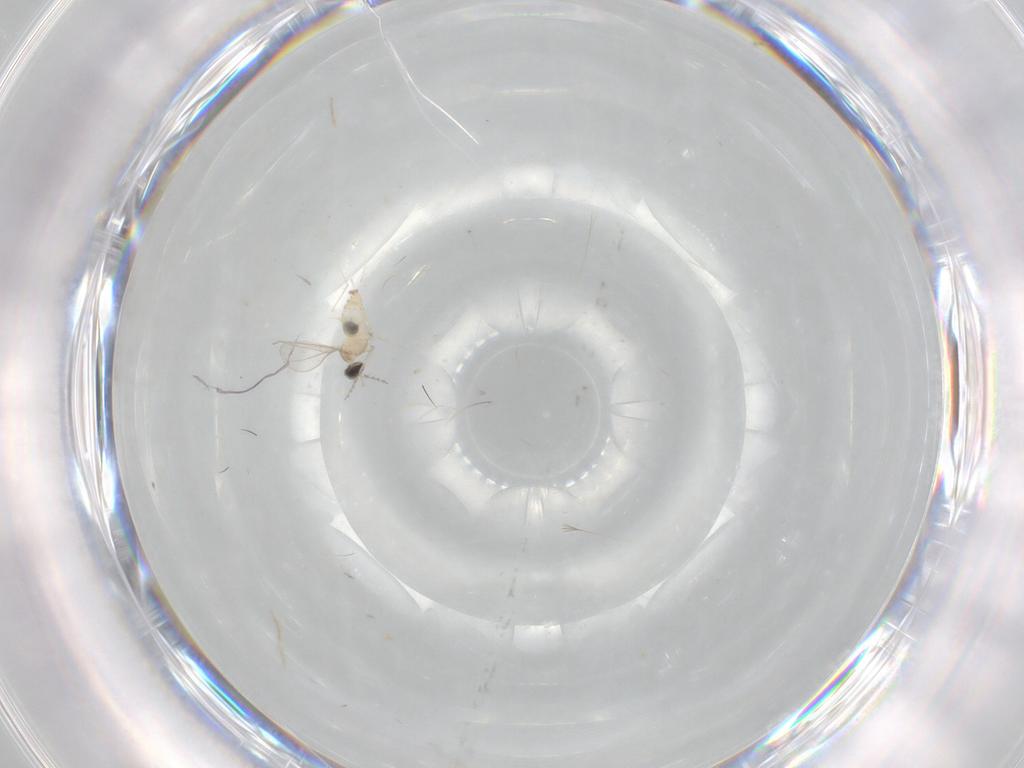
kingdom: Animalia
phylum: Arthropoda
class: Insecta
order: Diptera
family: Cecidomyiidae
